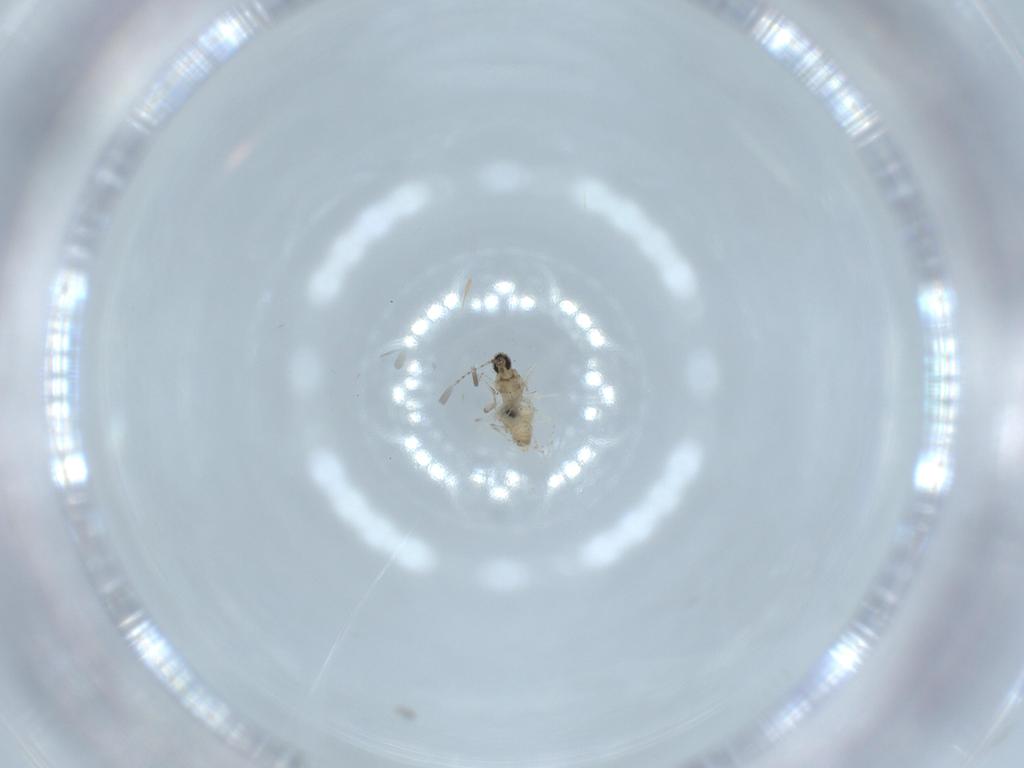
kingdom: Animalia
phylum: Arthropoda
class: Insecta
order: Diptera
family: Cecidomyiidae
